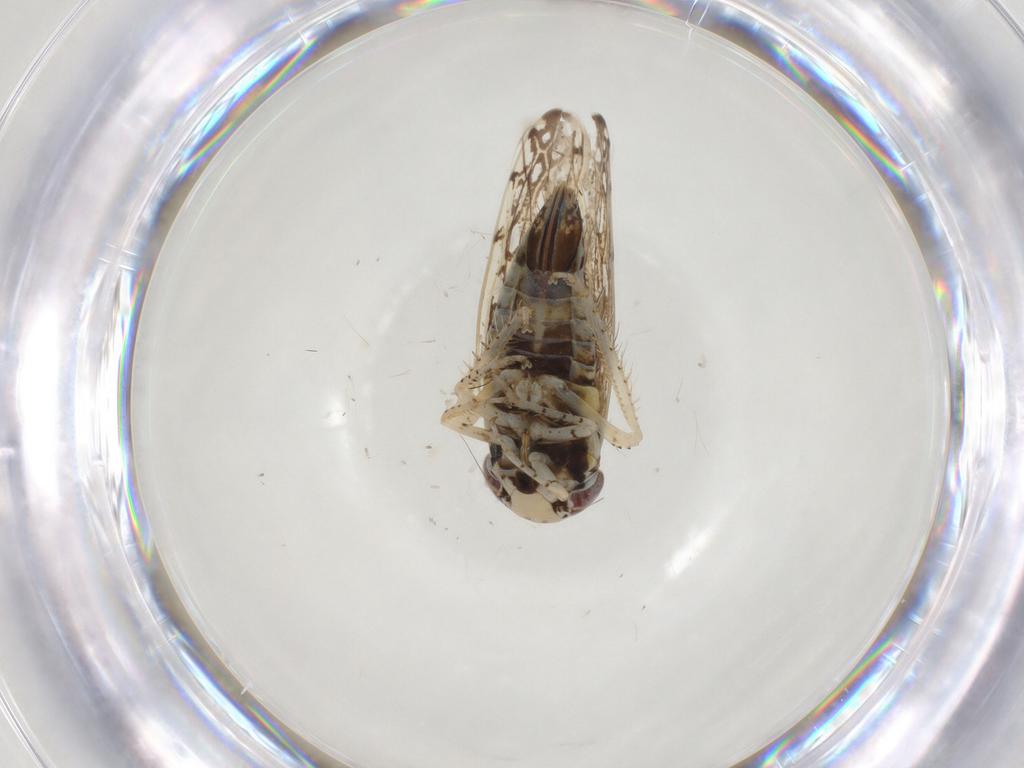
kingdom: Animalia
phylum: Arthropoda
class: Insecta
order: Hemiptera
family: Cicadellidae
